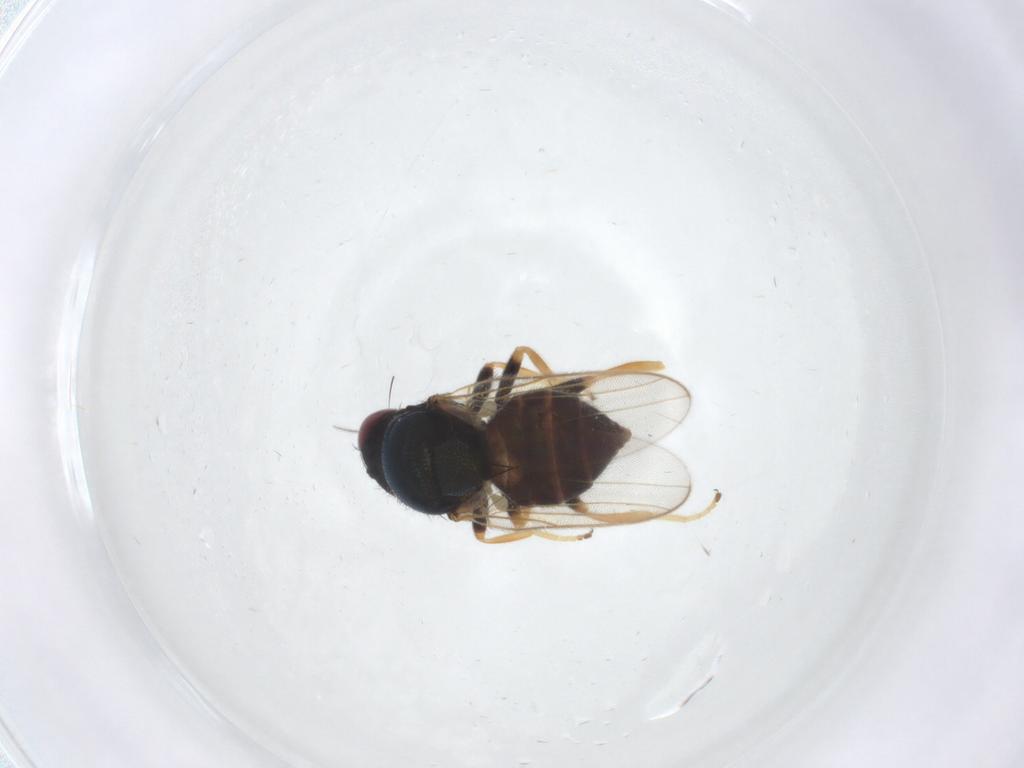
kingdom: Animalia
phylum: Arthropoda
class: Insecta
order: Diptera
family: Chloropidae
